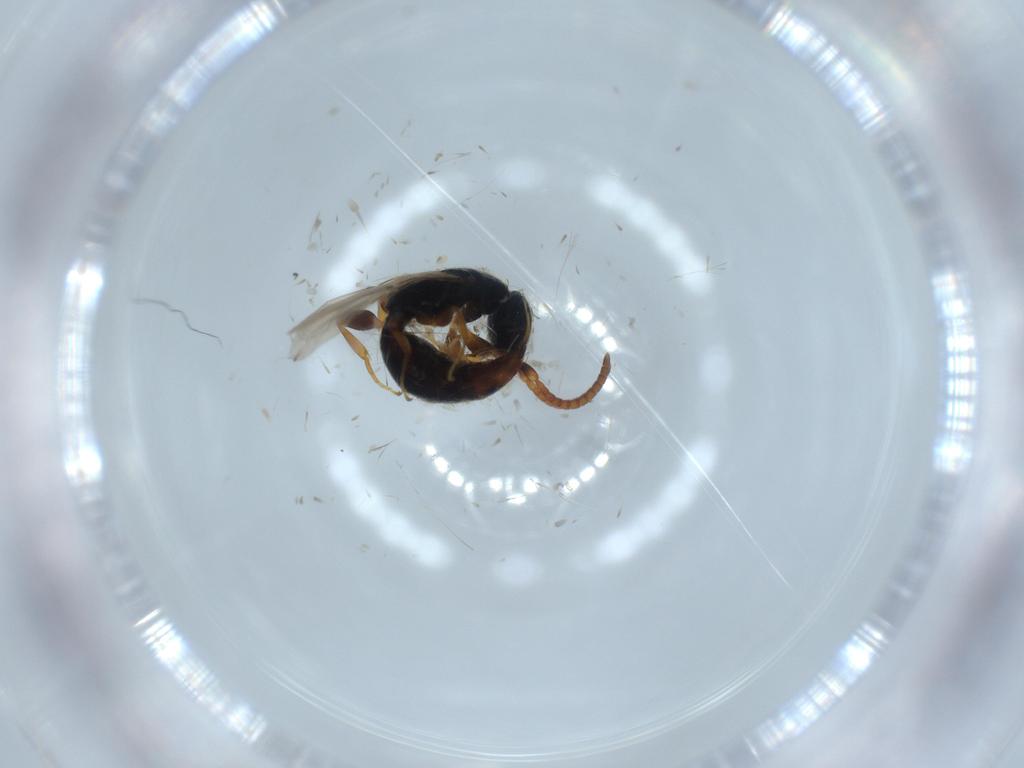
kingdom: Animalia
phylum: Arthropoda
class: Insecta
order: Hymenoptera
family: Bethylidae
